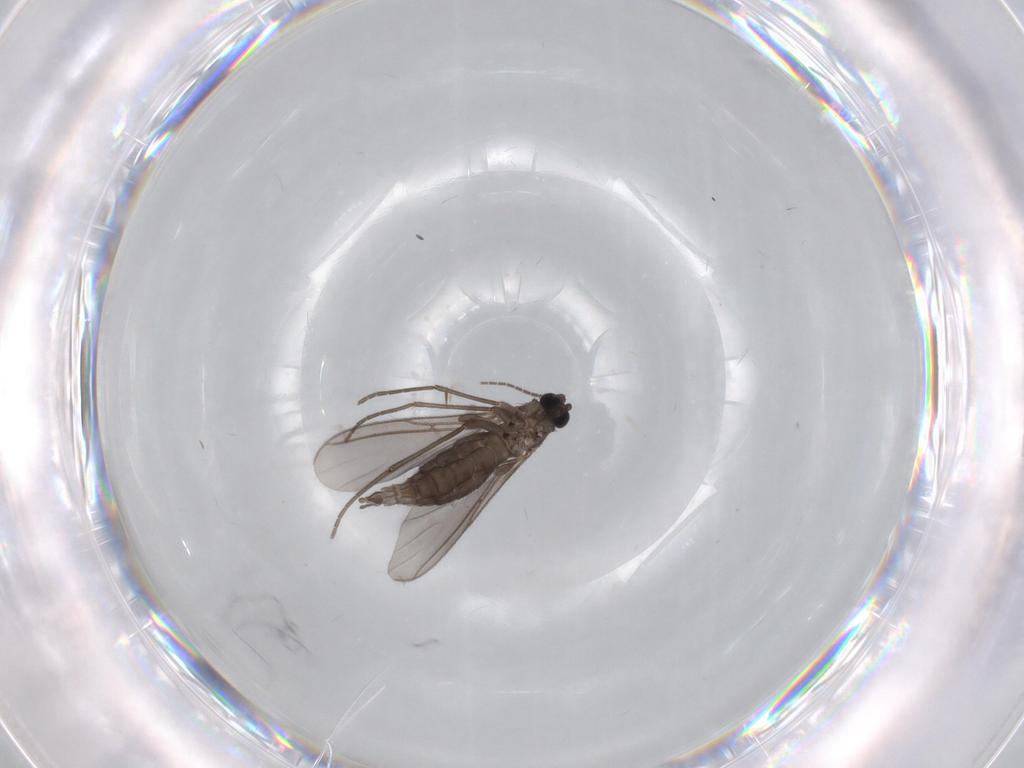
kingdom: Animalia
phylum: Arthropoda
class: Insecta
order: Diptera
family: Sciaridae
